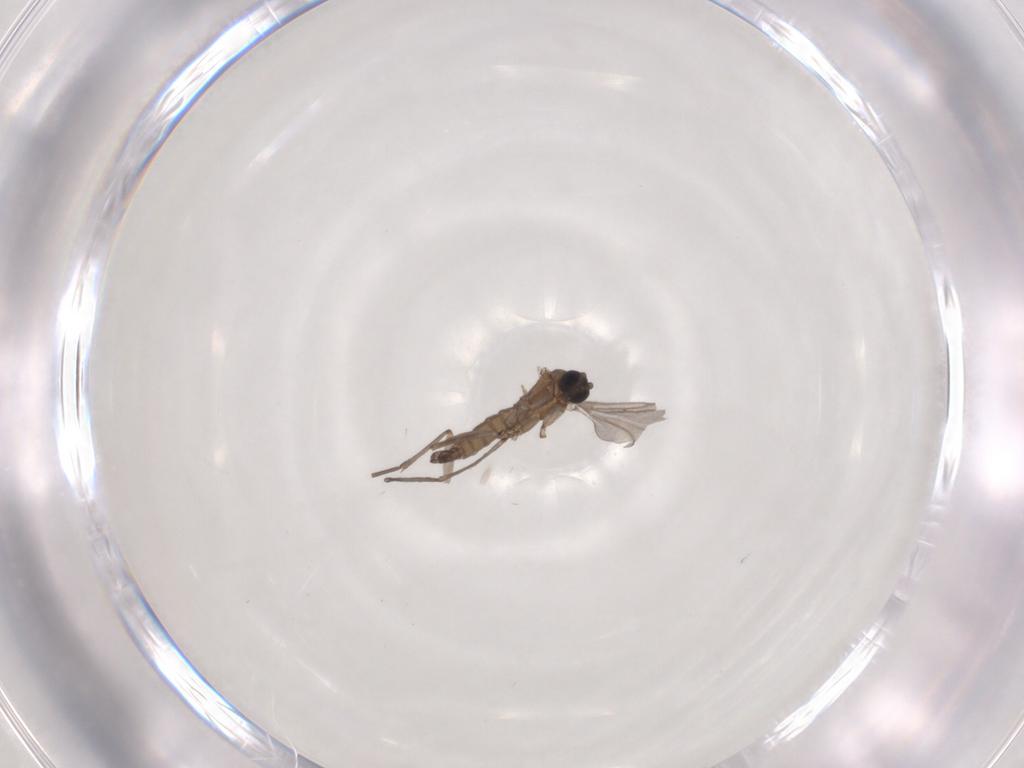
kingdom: Animalia
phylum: Arthropoda
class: Insecta
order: Diptera
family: Sciaridae
